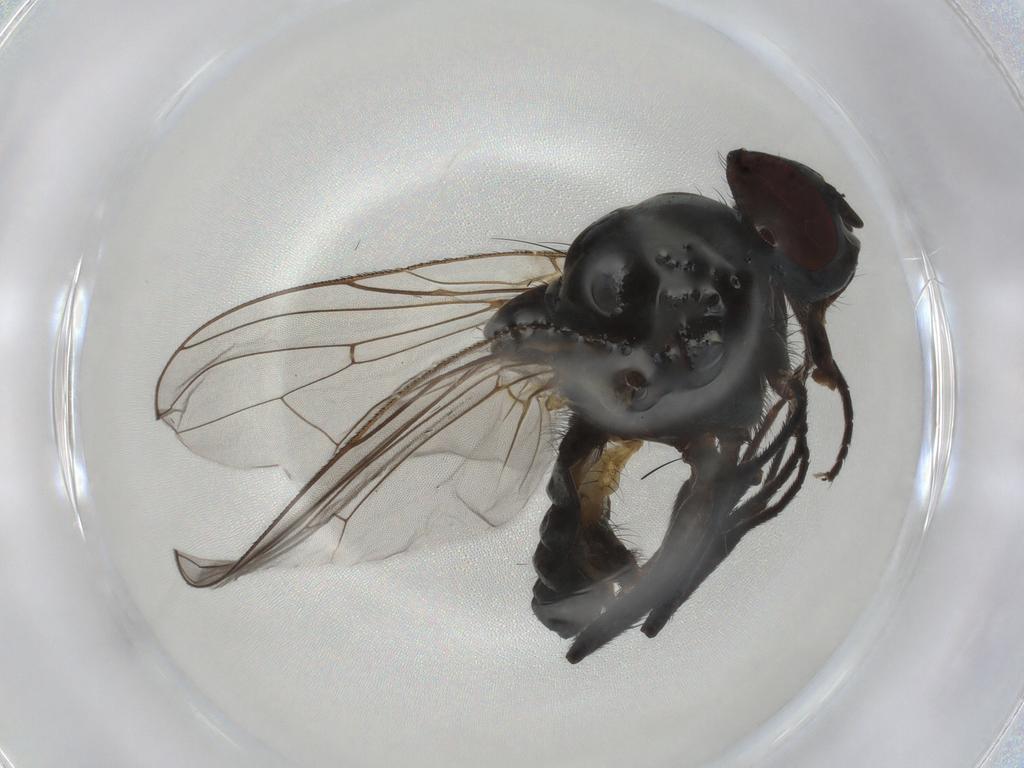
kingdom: Animalia
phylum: Arthropoda
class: Insecta
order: Diptera
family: Anthomyiidae
